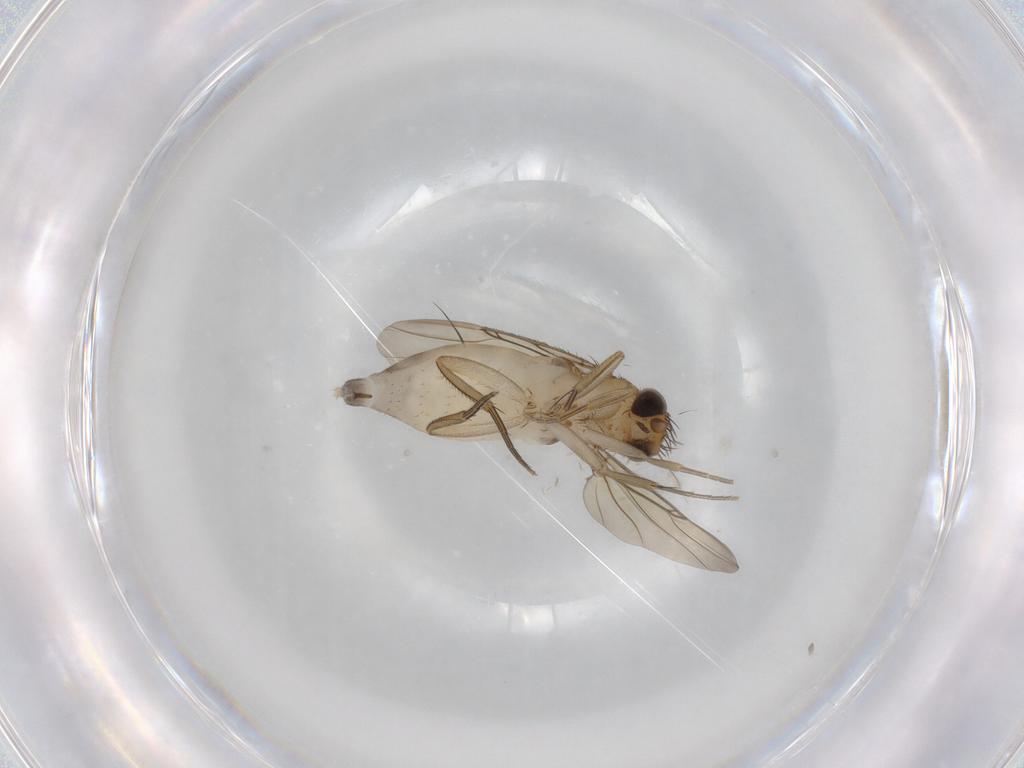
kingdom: Animalia
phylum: Arthropoda
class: Insecta
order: Diptera
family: Phoridae
